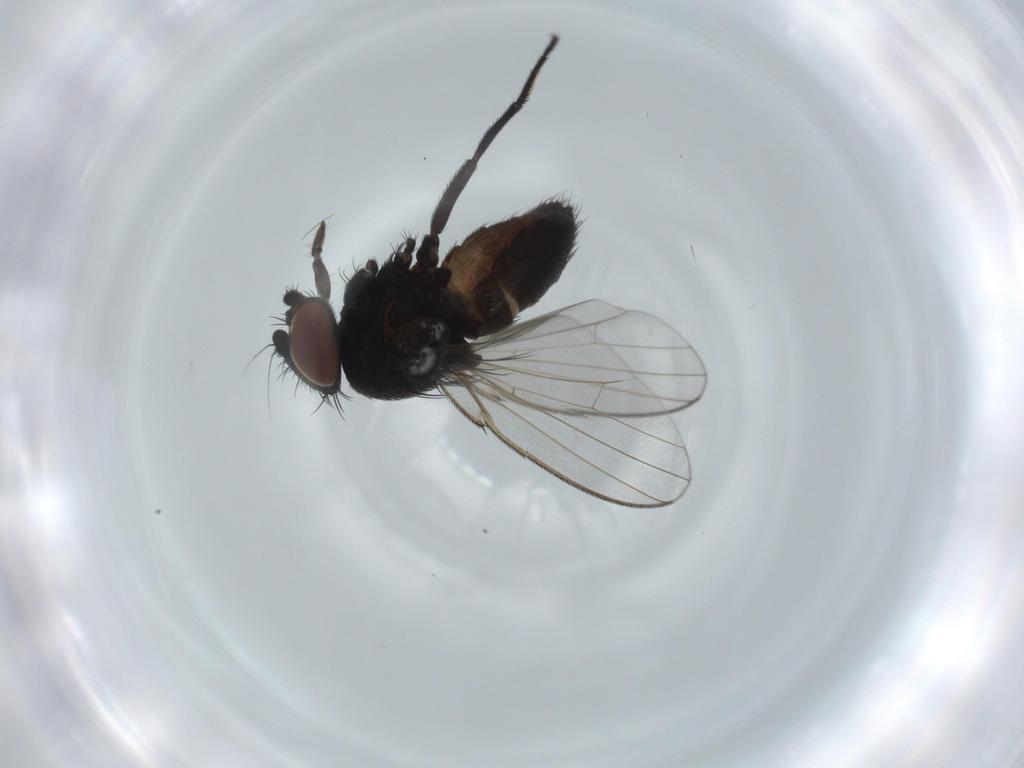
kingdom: Animalia
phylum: Arthropoda
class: Insecta
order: Diptera
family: Milichiidae
